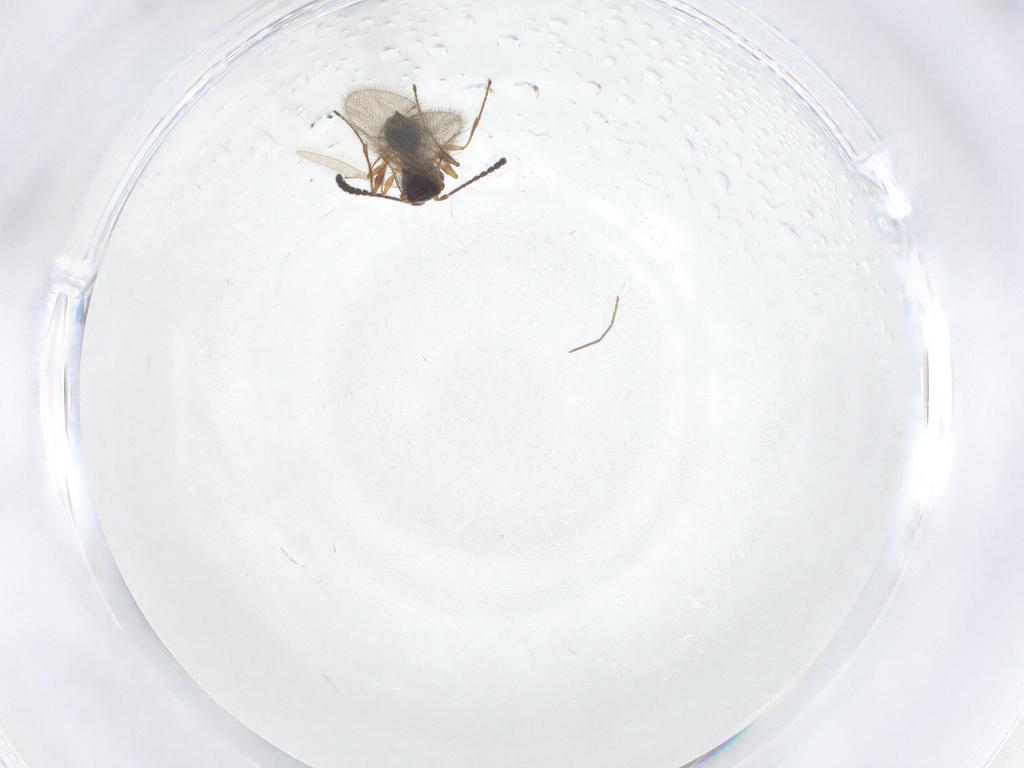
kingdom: Animalia
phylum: Arthropoda
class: Insecta
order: Hymenoptera
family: Diapriidae
